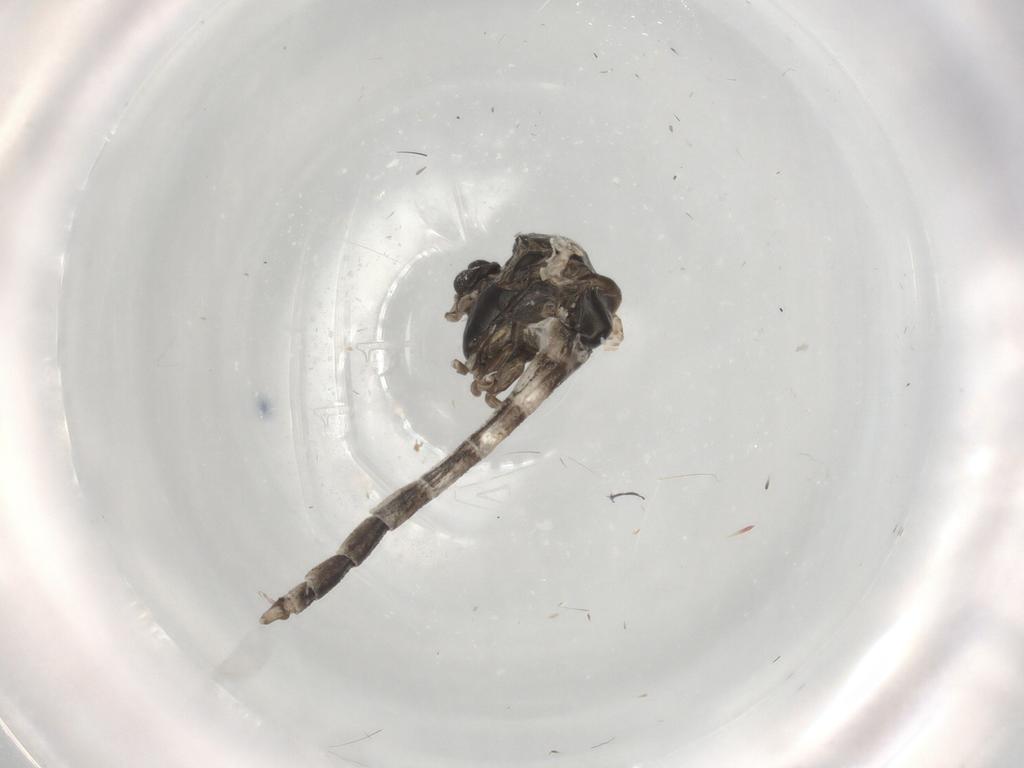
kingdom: Animalia
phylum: Arthropoda
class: Insecta
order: Diptera
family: Chironomidae
